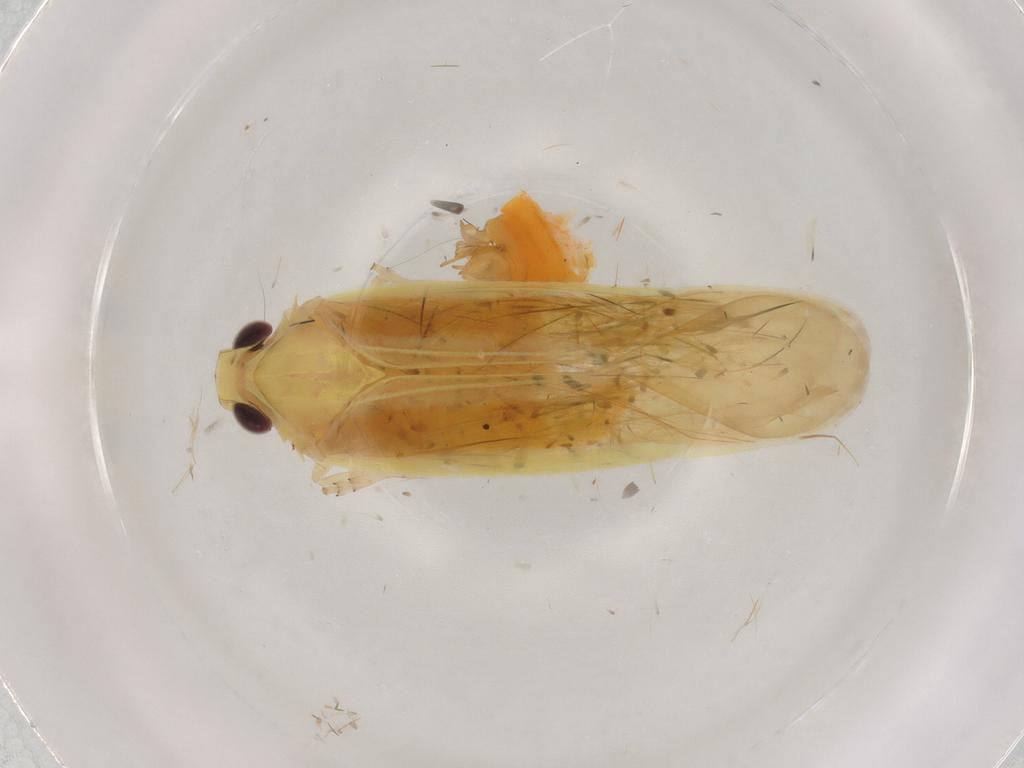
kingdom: Animalia
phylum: Arthropoda
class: Insecta
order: Hemiptera
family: Achilidae
